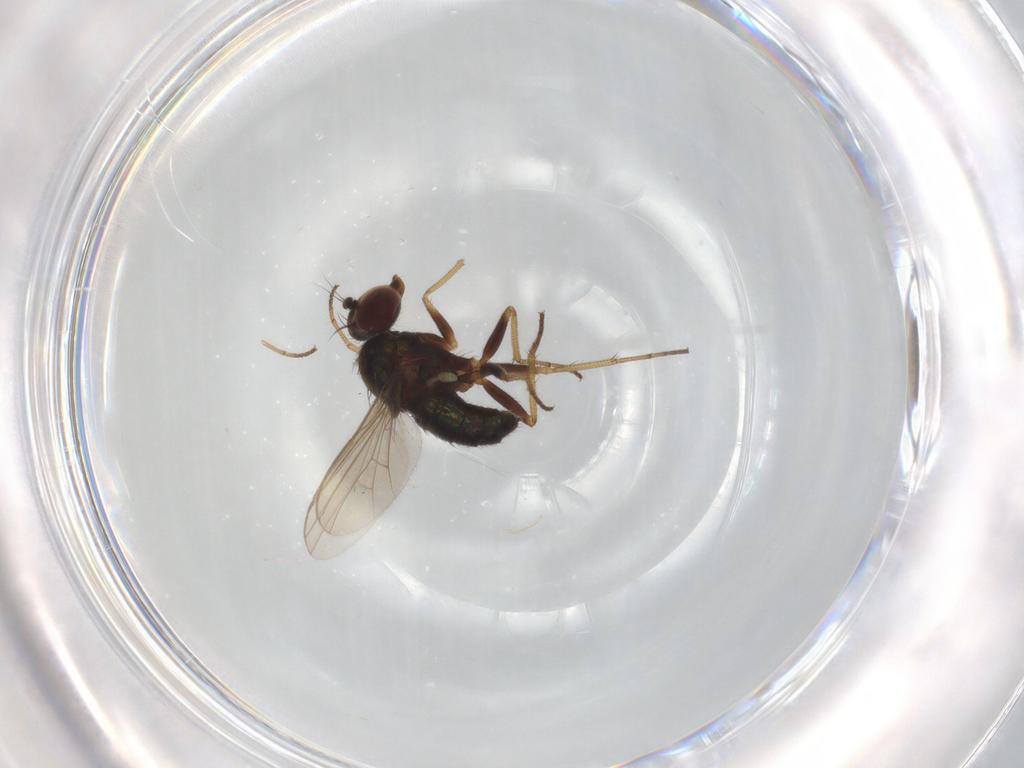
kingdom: Animalia
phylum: Arthropoda
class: Insecta
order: Diptera
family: Dolichopodidae
